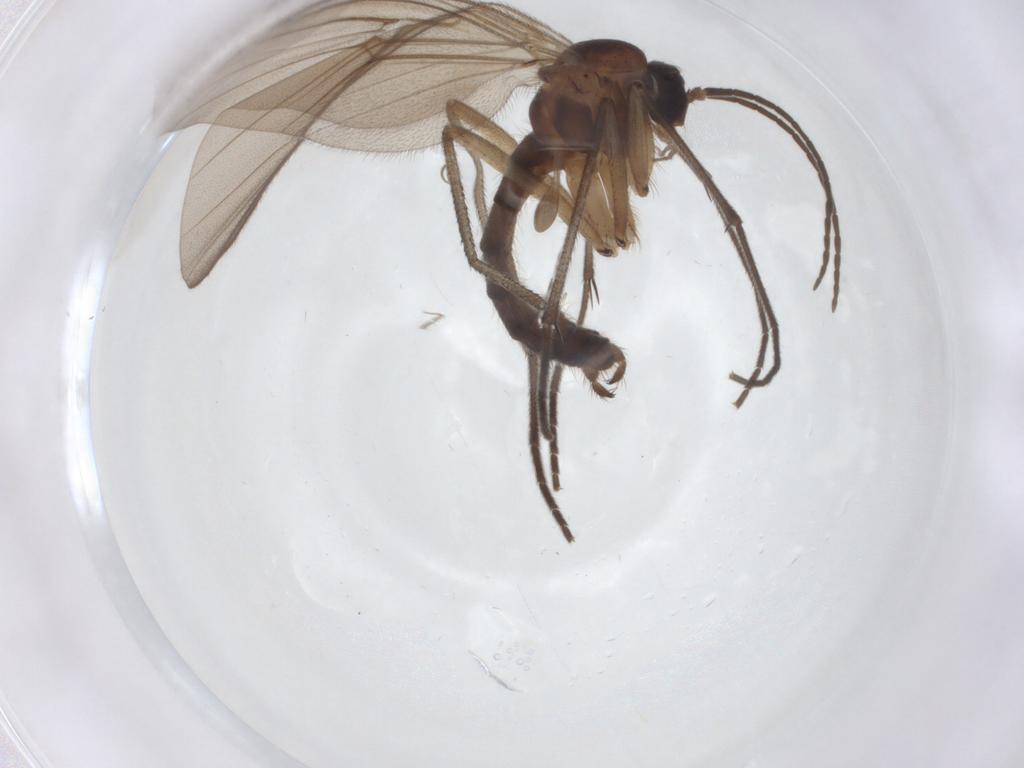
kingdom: Animalia
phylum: Arthropoda
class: Insecta
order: Diptera
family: Chironomidae
